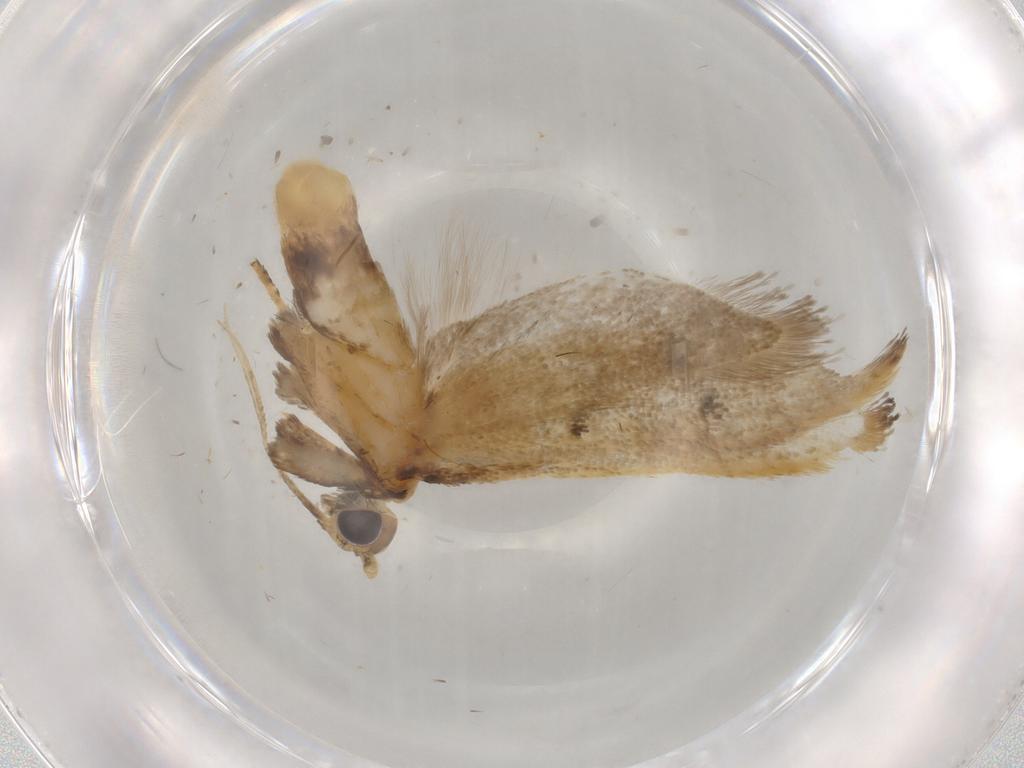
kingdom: Animalia
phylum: Arthropoda
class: Insecta
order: Lepidoptera
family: Lecithoceridae
